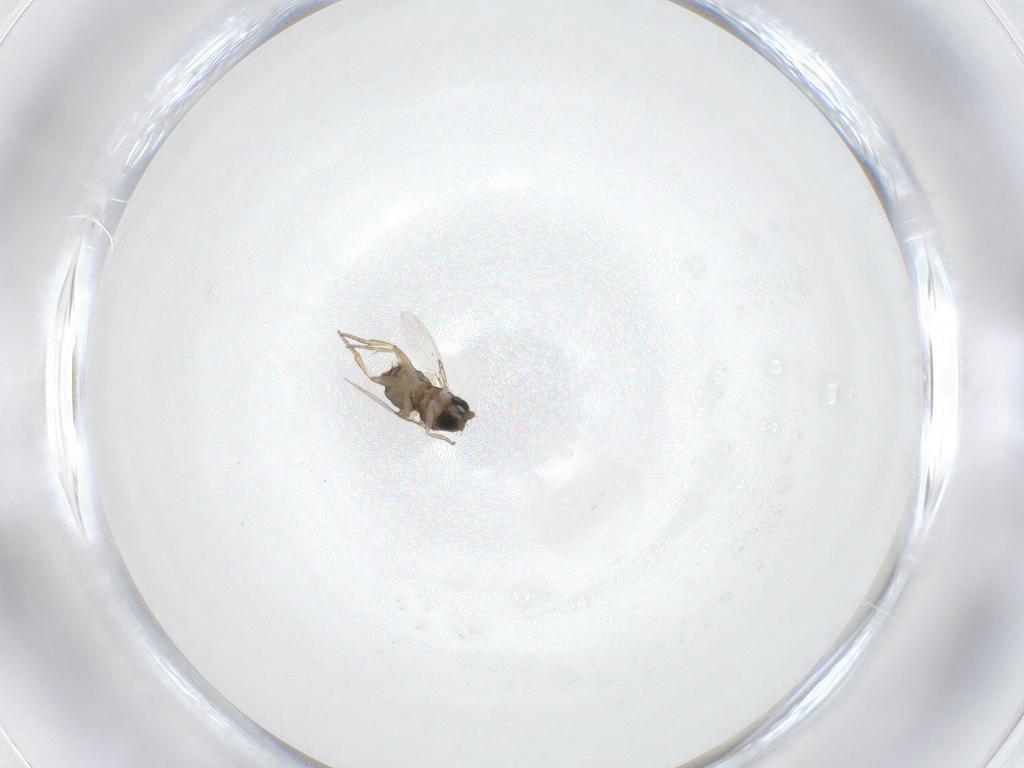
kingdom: Animalia
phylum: Arthropoda
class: Insecta
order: Diptera
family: Phoridae
